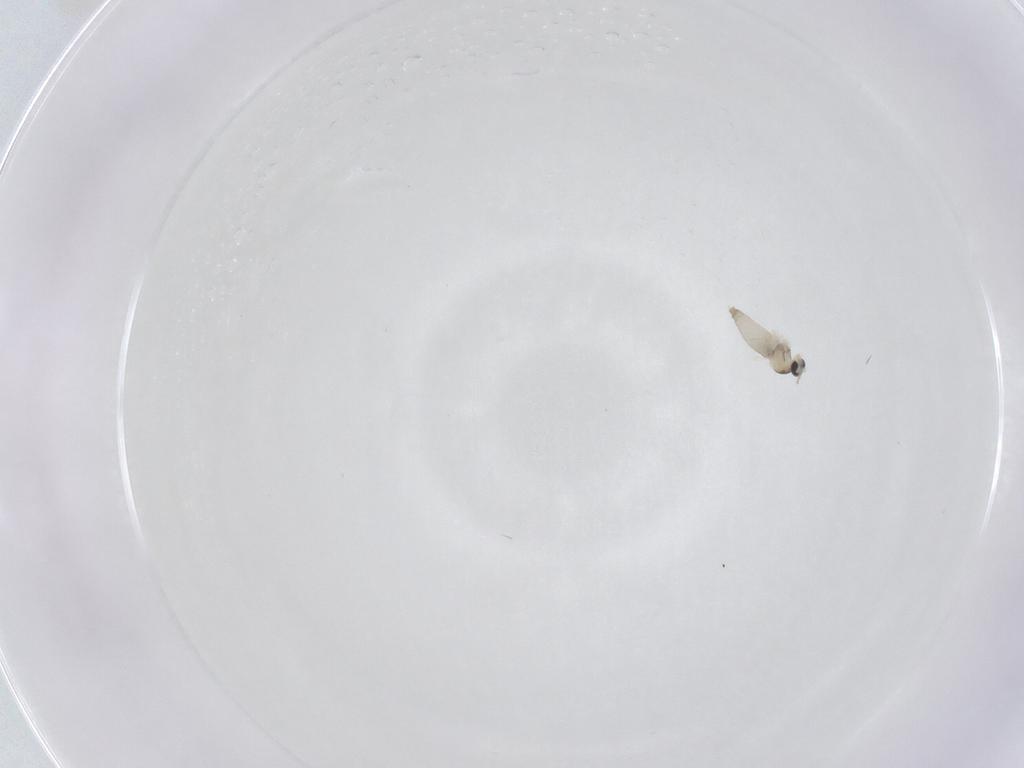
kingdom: Animalia
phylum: Arthropoda
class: Insecta
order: Diptera
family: Cecidomyiidae
